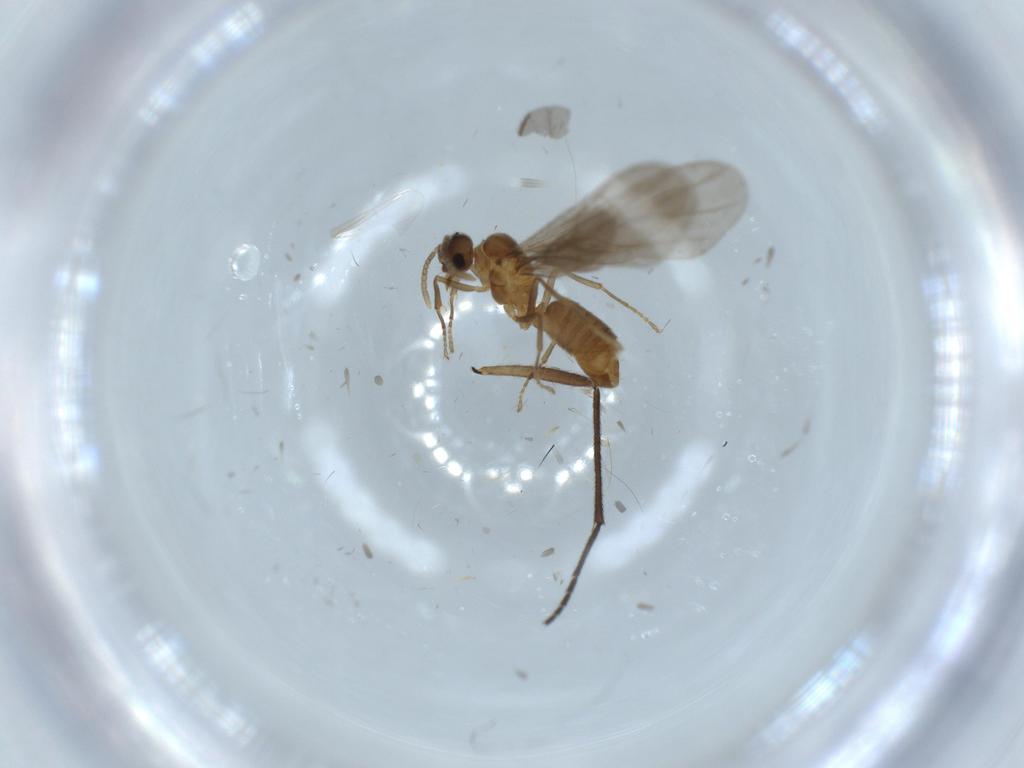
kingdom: Animalia
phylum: Arthropoda
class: Insecta
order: Hymenoptera
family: Formicidae
